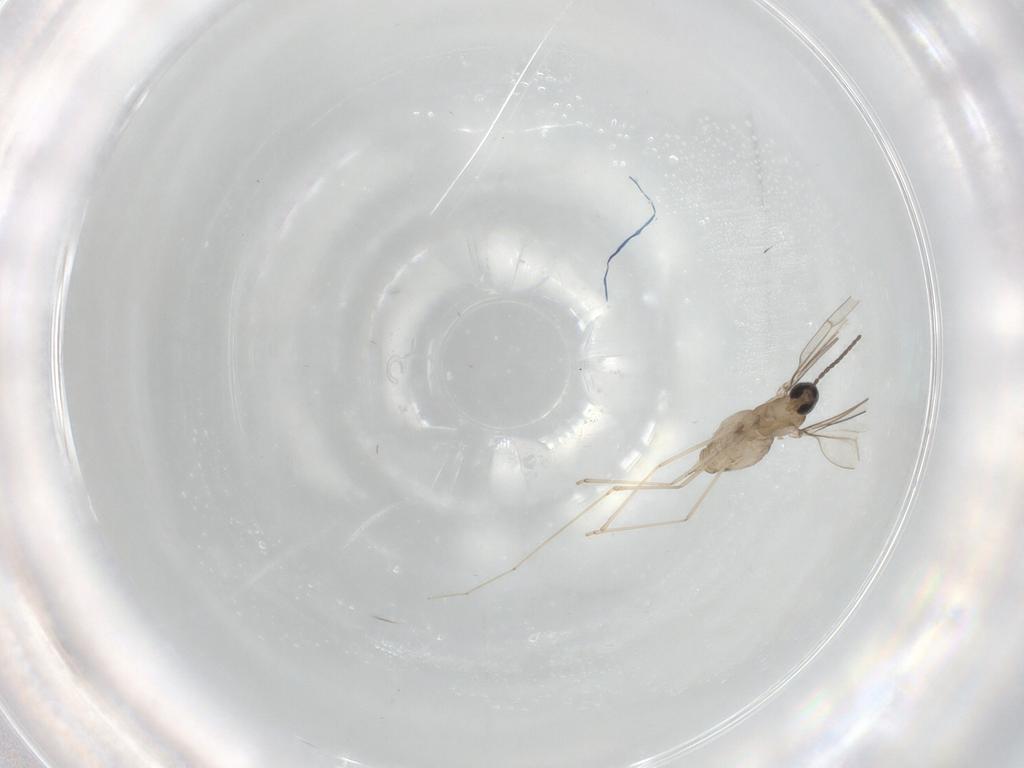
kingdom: Animalia
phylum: Arthropoda
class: Insecta
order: Diptera
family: Cecidomyiidae
